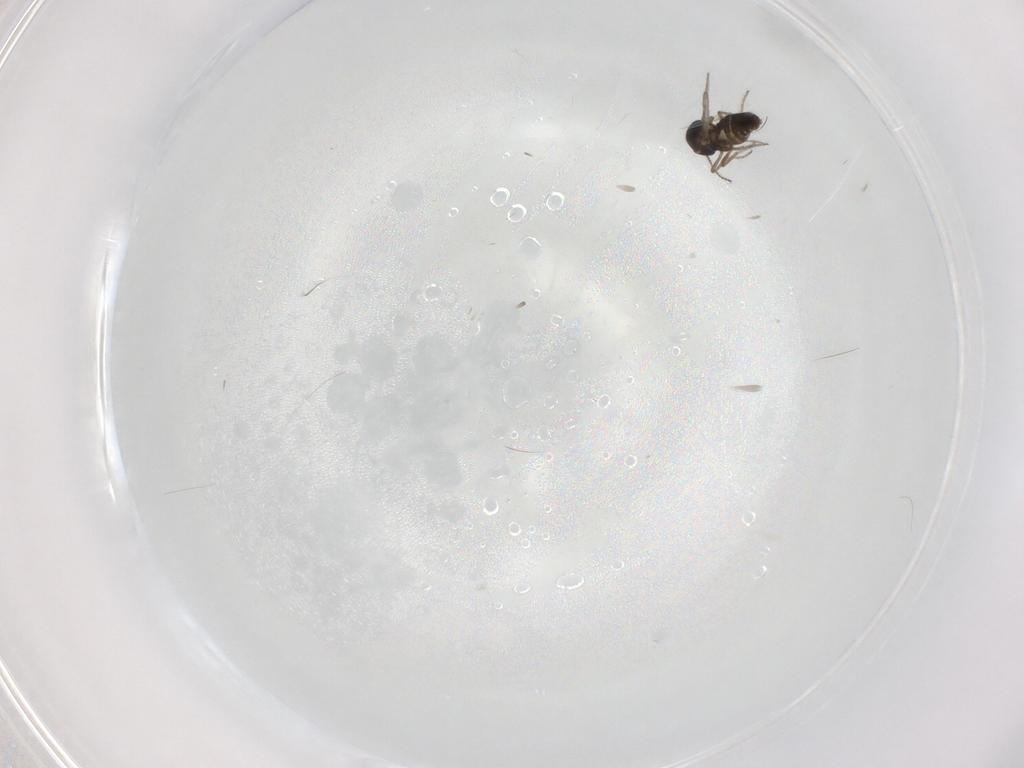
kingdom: Animalia
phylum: Arthropoda
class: Insecta
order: Diptera
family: Ceratopogonidae
